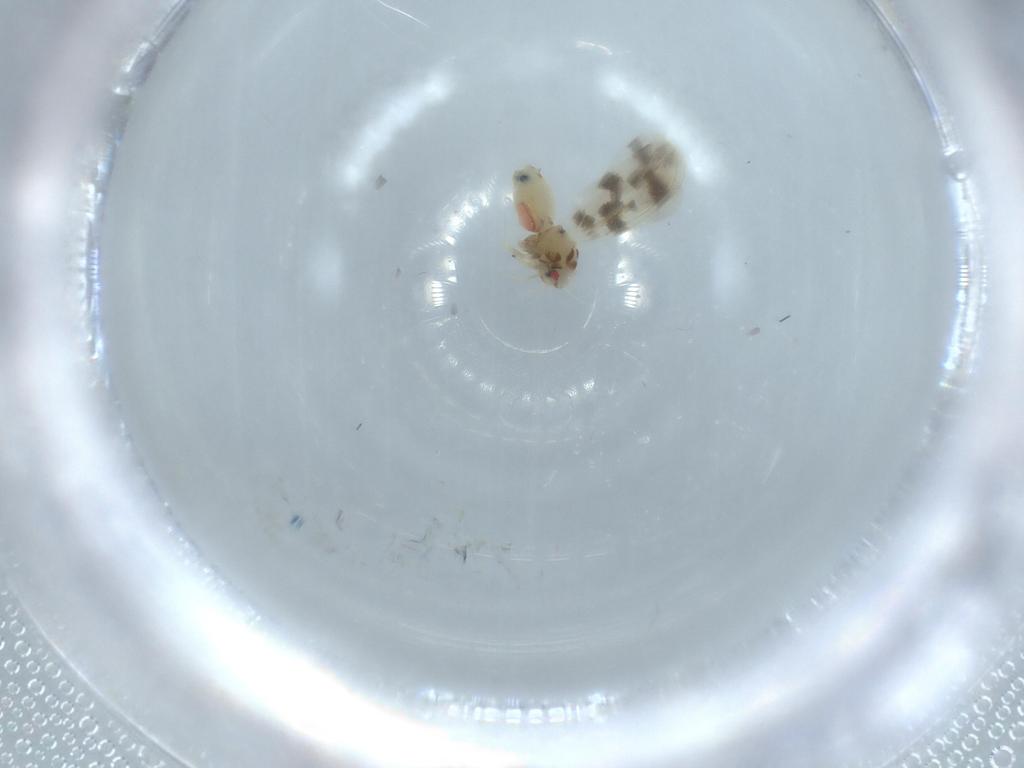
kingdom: Animalia
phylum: Arthropoda
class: Insecta
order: Hemiptera
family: Aleyrodidae
